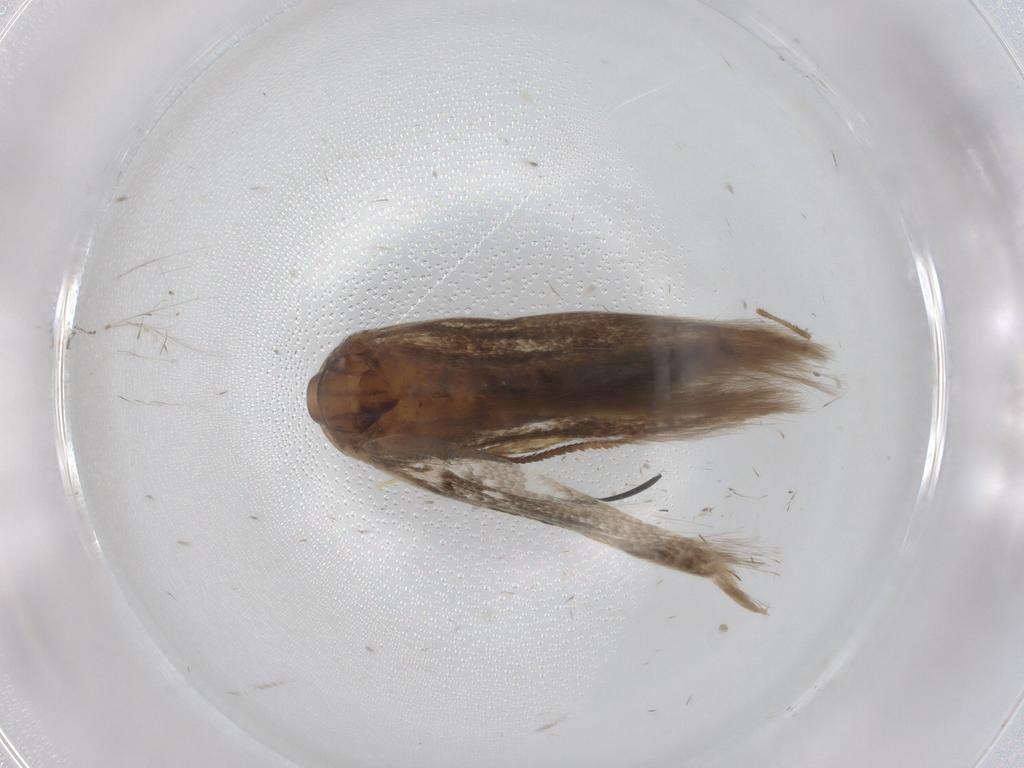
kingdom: Animalia
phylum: Arthropoda
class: Insecta
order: Lepidoptera
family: Cosmopterigidae
